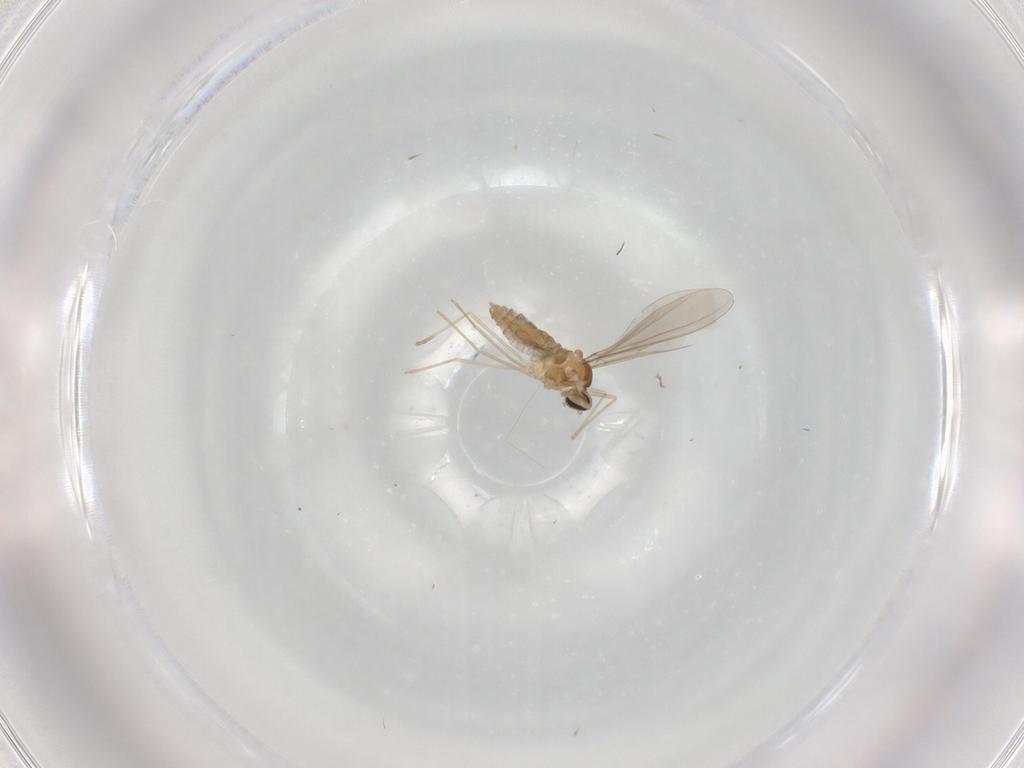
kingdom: Animalia
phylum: Arthropoda
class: Insecta
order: Diptera
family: Cecidomyiidae
